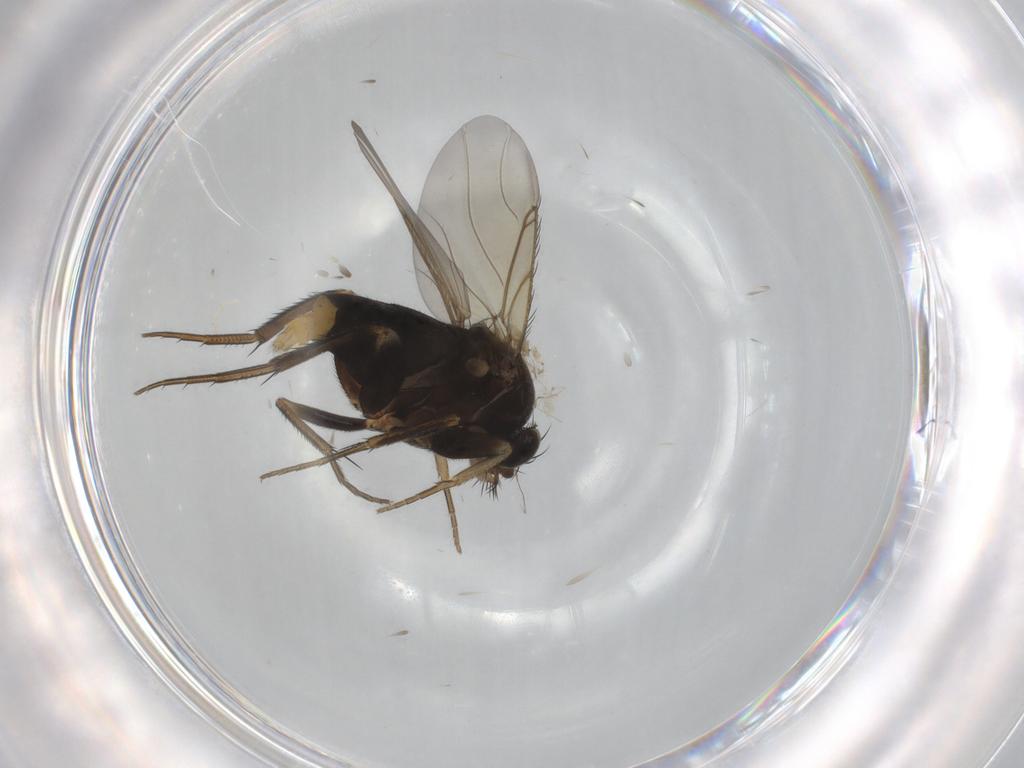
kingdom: Animalia
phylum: Arthropoda
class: Insecta
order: Diptera
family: Phoridae
